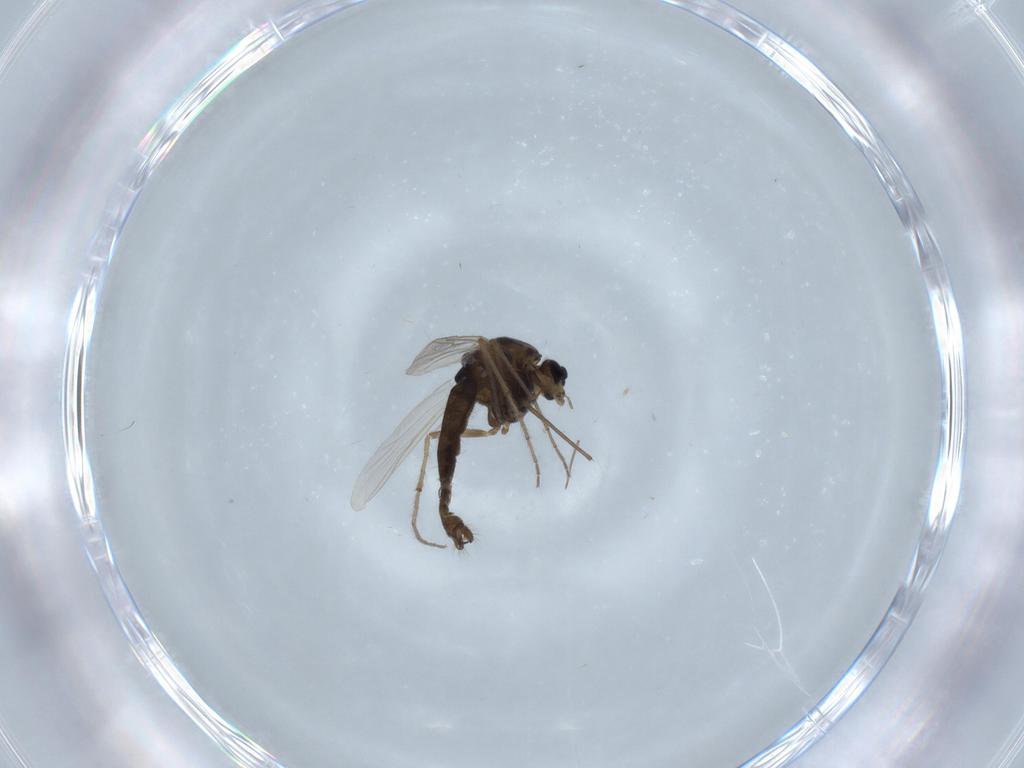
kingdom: Animalia
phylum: Arthropoda
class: Insecta
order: Diptera
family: Chironomidae
